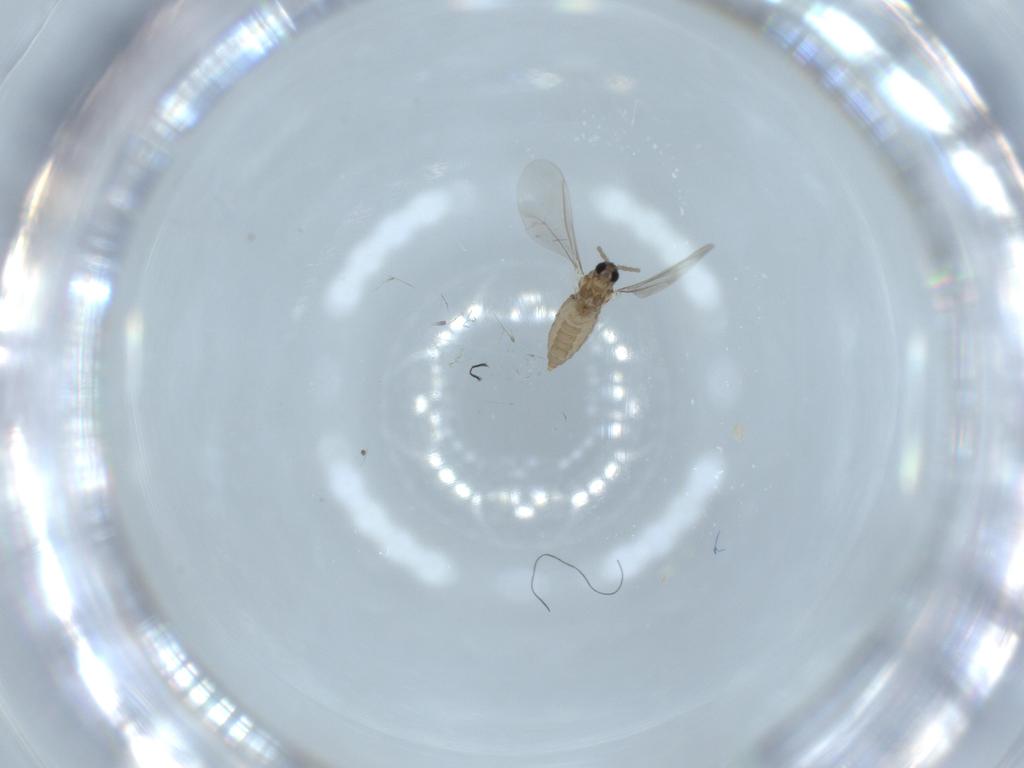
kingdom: Animalia
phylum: Arthropoda
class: Insecta
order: Diptera
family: Cecidomyiidae
